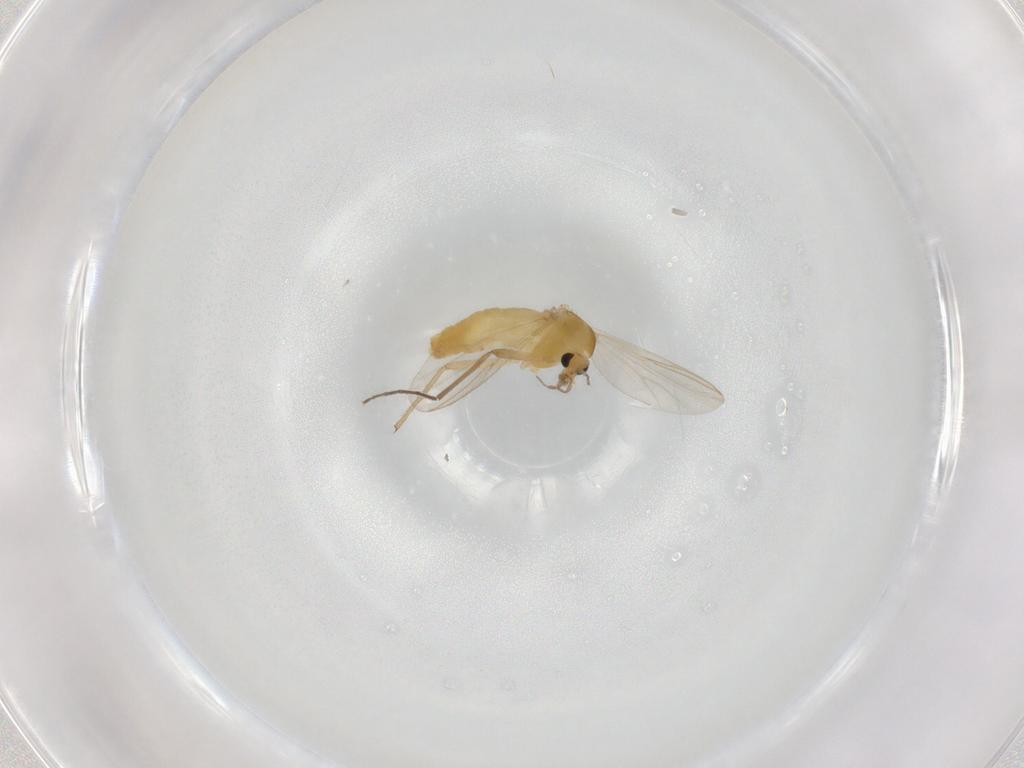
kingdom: Animalia
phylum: Arthropoda
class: Insecta
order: Diptera
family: Chironomidae
